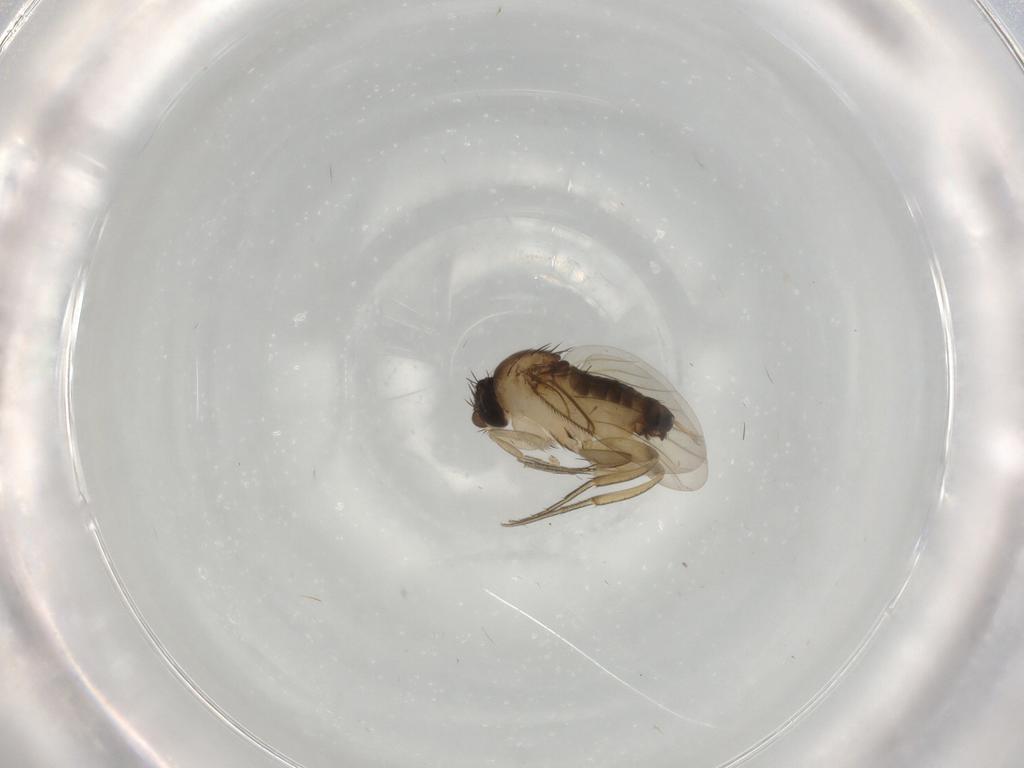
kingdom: Animalia
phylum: Arthropoda
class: Insecta
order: Diptera
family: Phoridae
